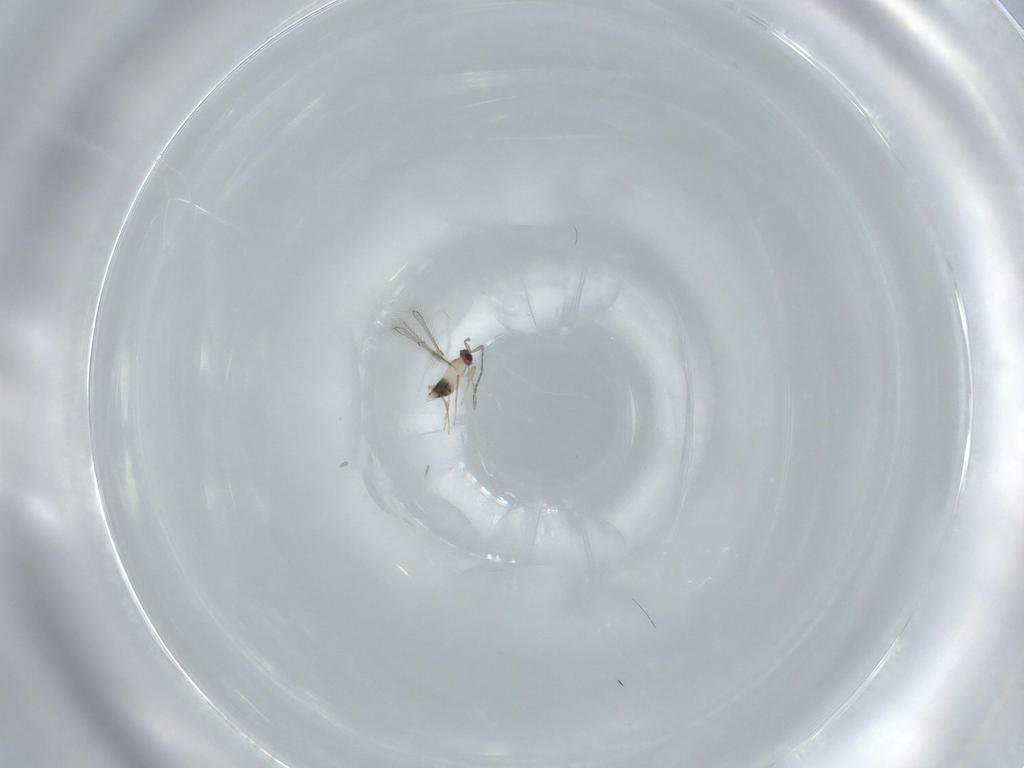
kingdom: Animalia
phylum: Arthropoda
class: Insecta
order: Hymenoptera
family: Mymaridae
